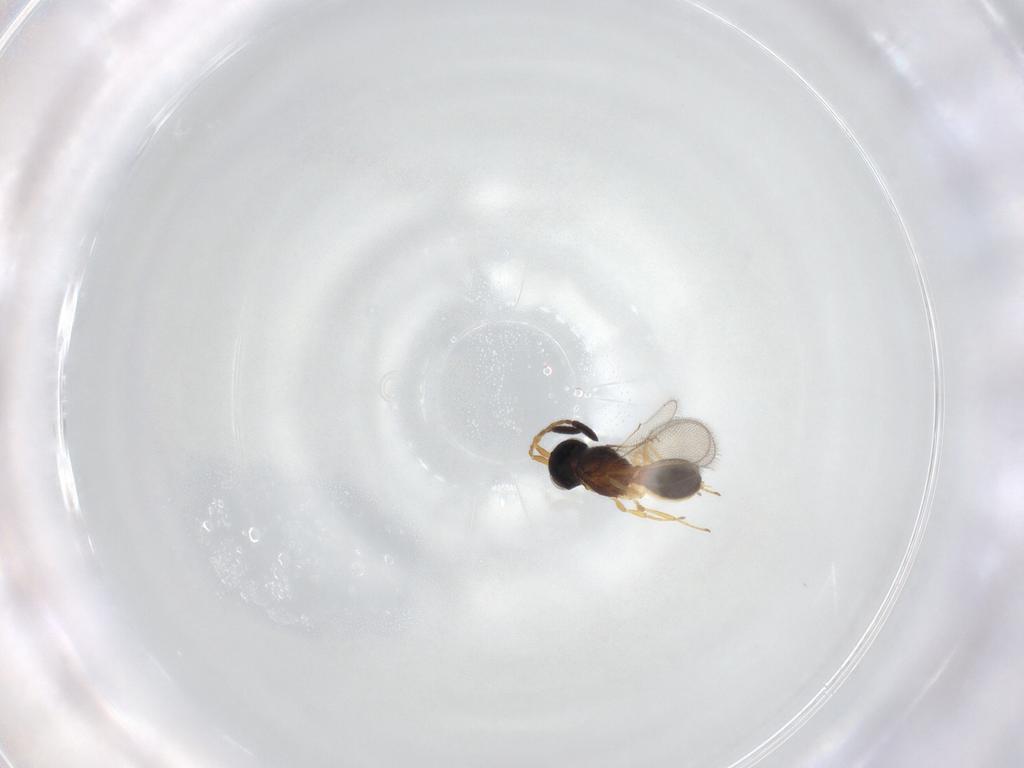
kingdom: Animalia
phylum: Arthropoda
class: Insecta
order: Hymenoptera
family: Scelionidae
